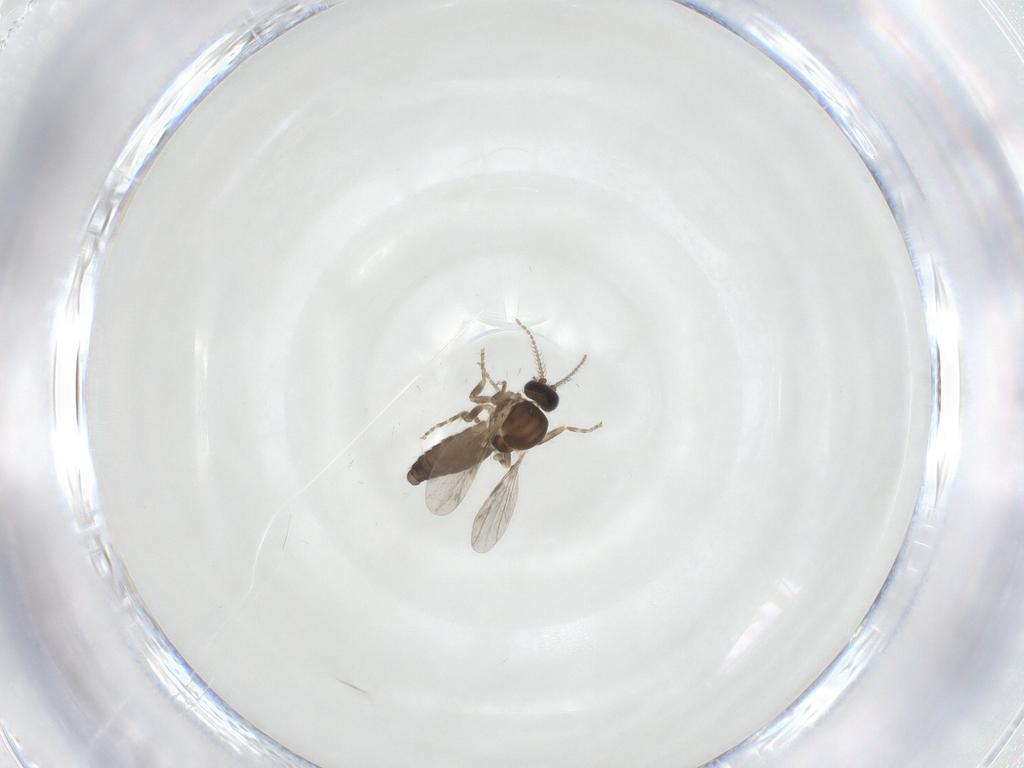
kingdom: Animalia
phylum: Arthropoda
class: Insecta
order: Diptera
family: Ceratopogonidae
